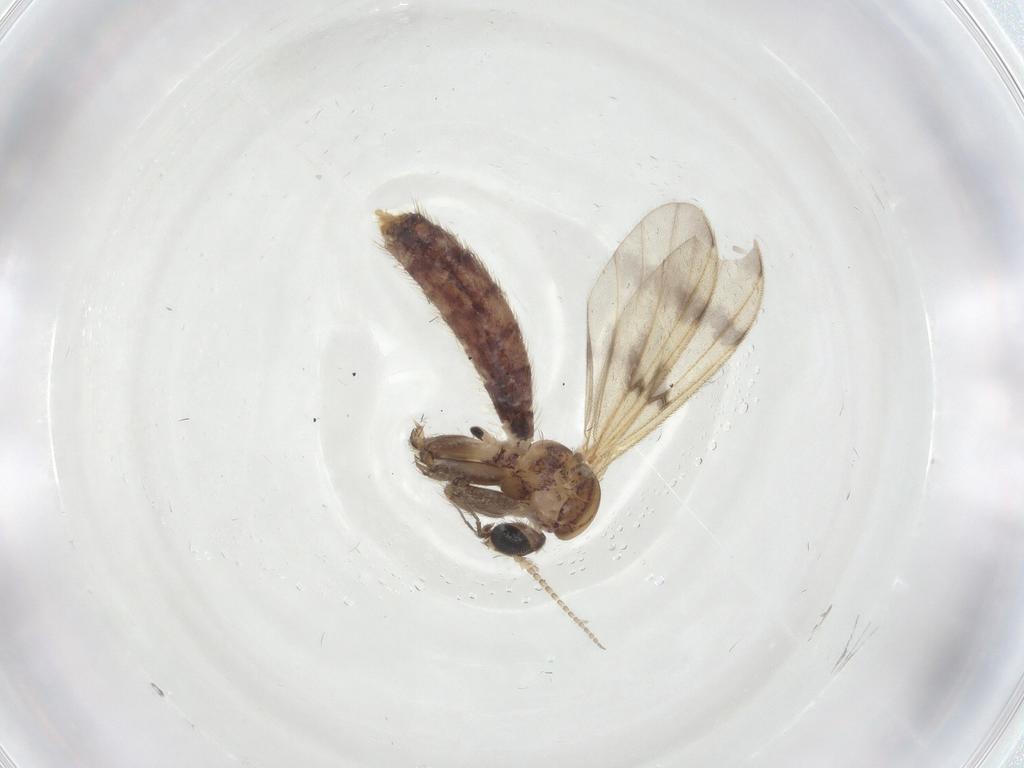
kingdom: Animalia
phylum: Arthropoda
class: Insecta
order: Diptera
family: Mycetophilidae
